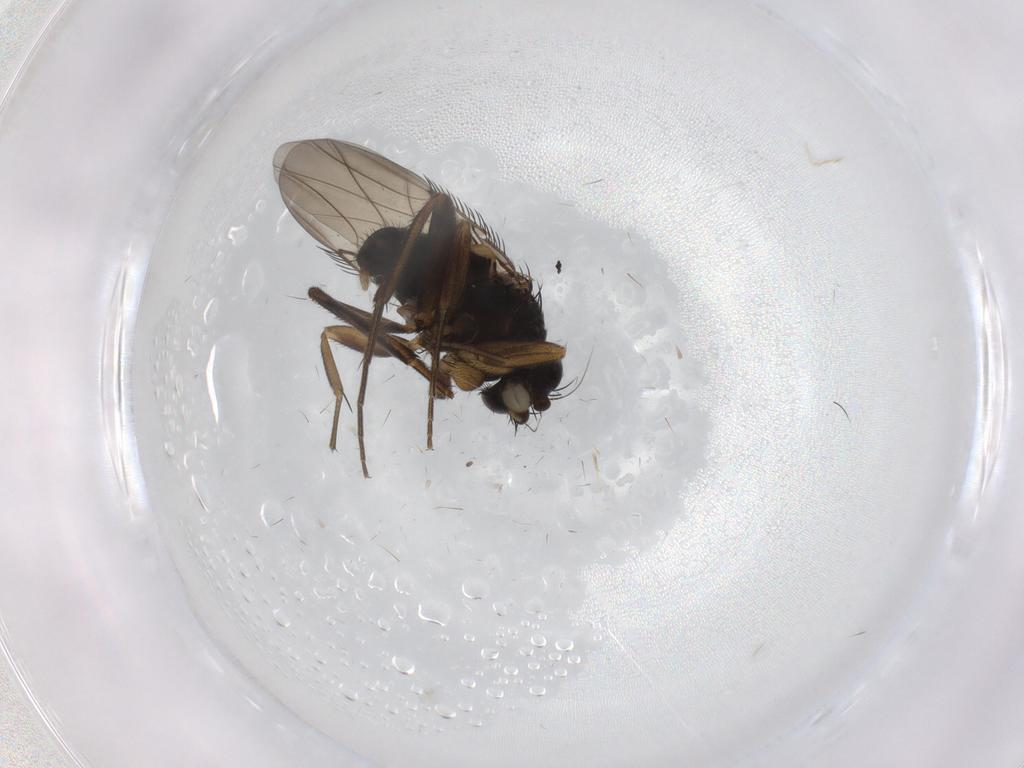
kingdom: Animalia
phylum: Arthropoda
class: Insecta
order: Diptera
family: Phoridae
